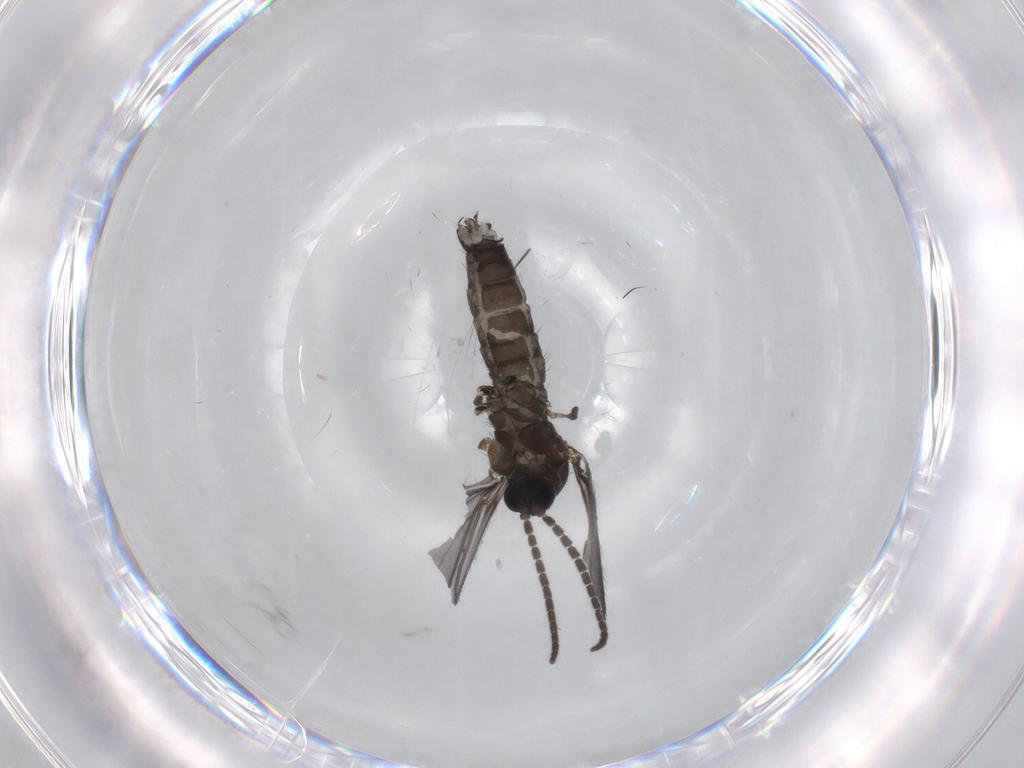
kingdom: Animalia
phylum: Arthropoda
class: Insecta
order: Diptera
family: Sciaridae
